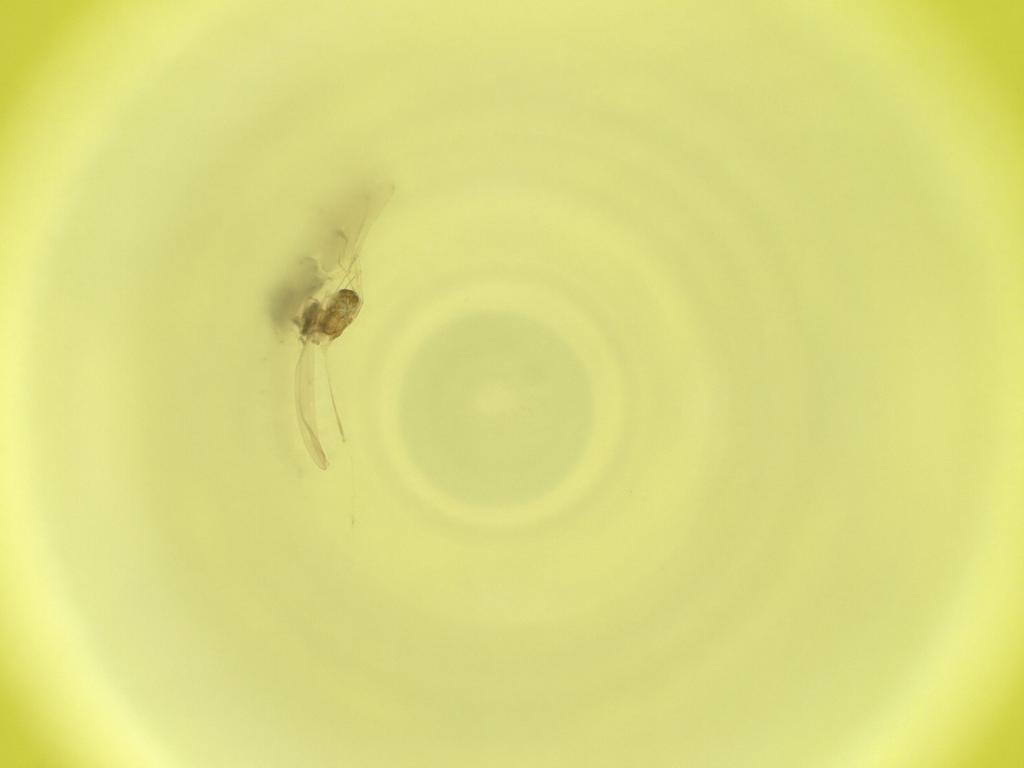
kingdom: Animalia
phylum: Arthropoda
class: Insecta
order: Diptera
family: Cecidomyiidae
